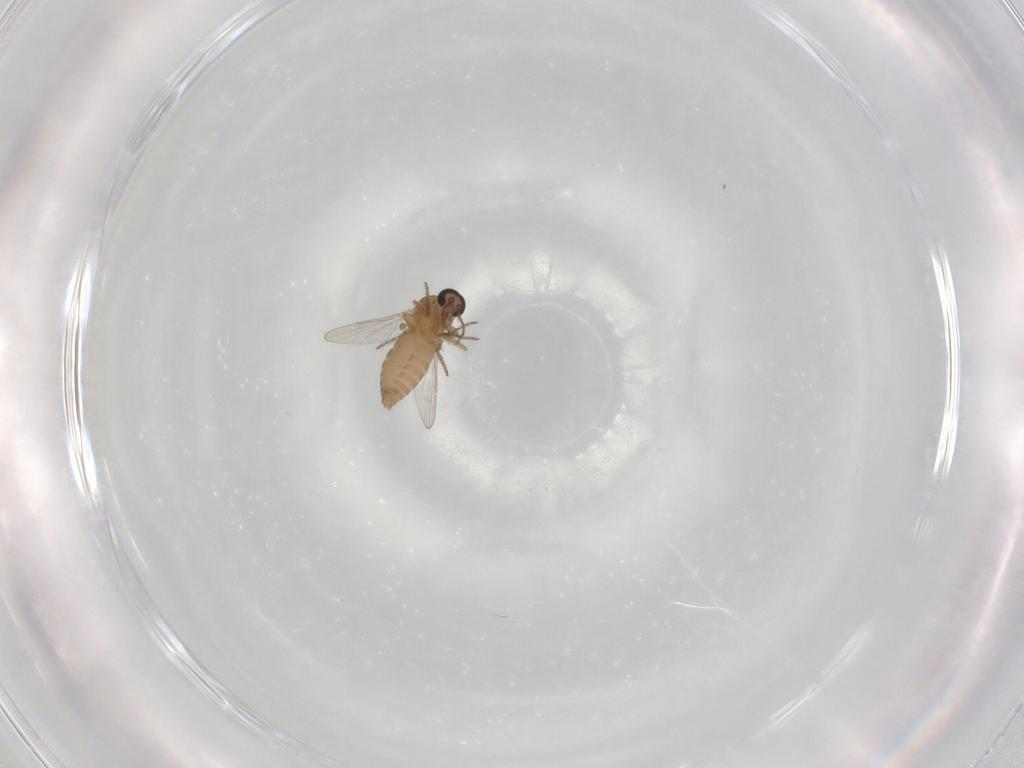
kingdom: Animalia
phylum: Arthropoda
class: Insecta
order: Diptera
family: Ceratopogonidae
